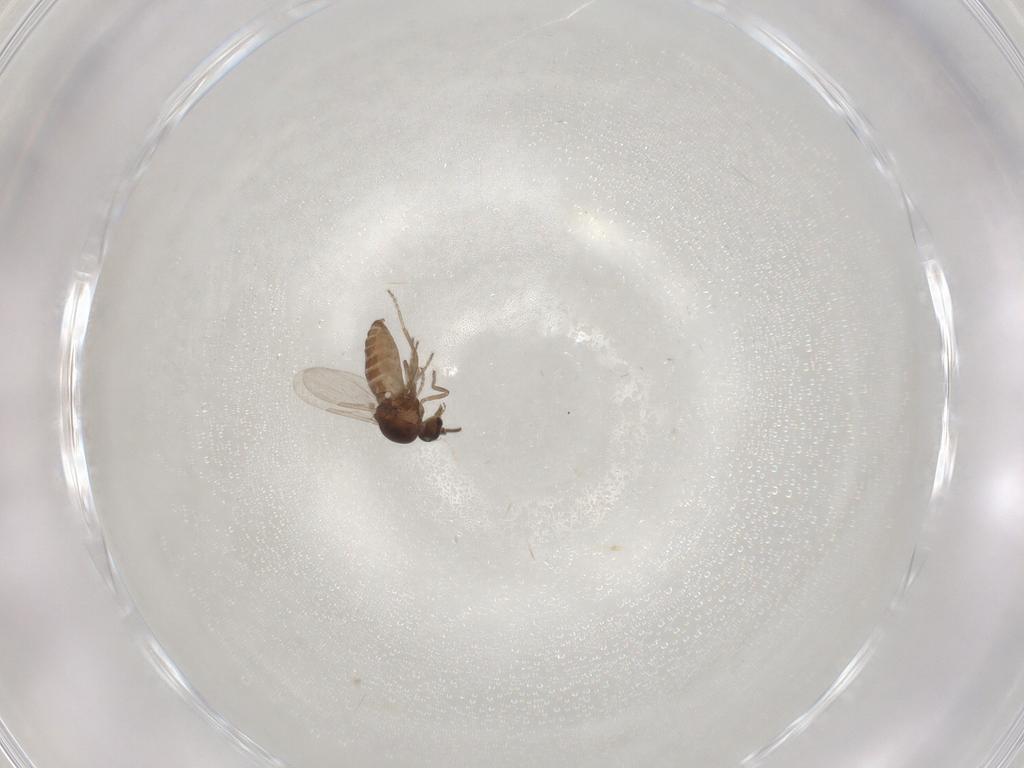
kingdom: Animalia
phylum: Arthropoda
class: Insecta
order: Diptera
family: Ceratopogonidae
